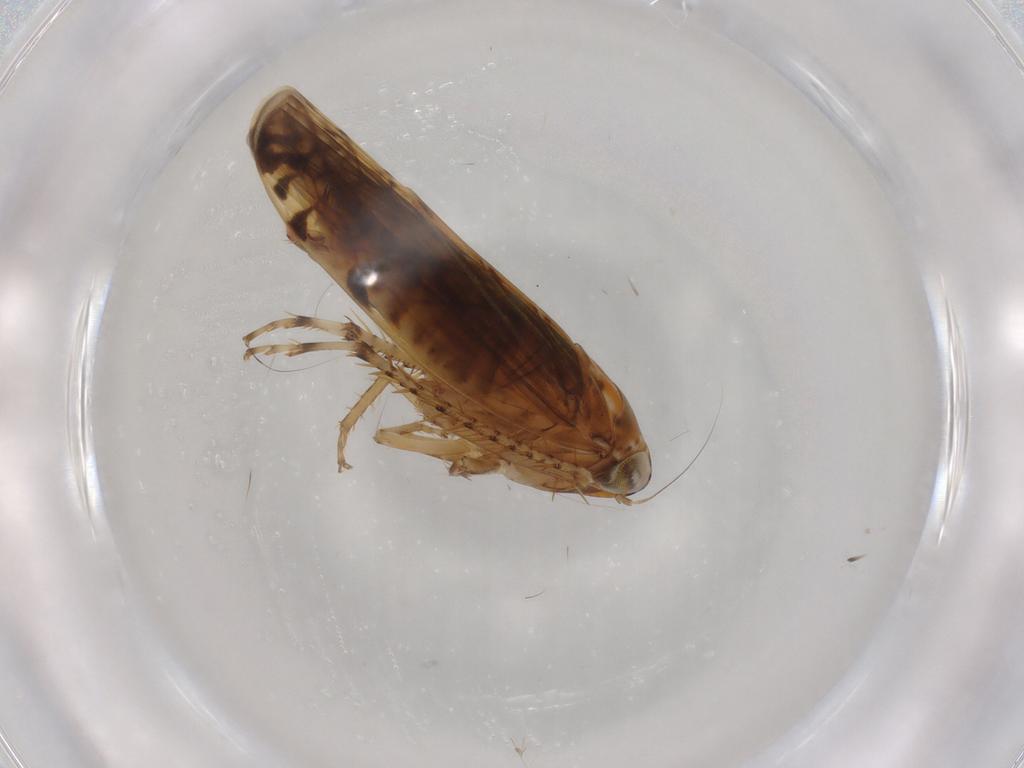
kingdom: Animalia
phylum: Arthropoda
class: Insecta
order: Hemiptera
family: Cicadellidae
